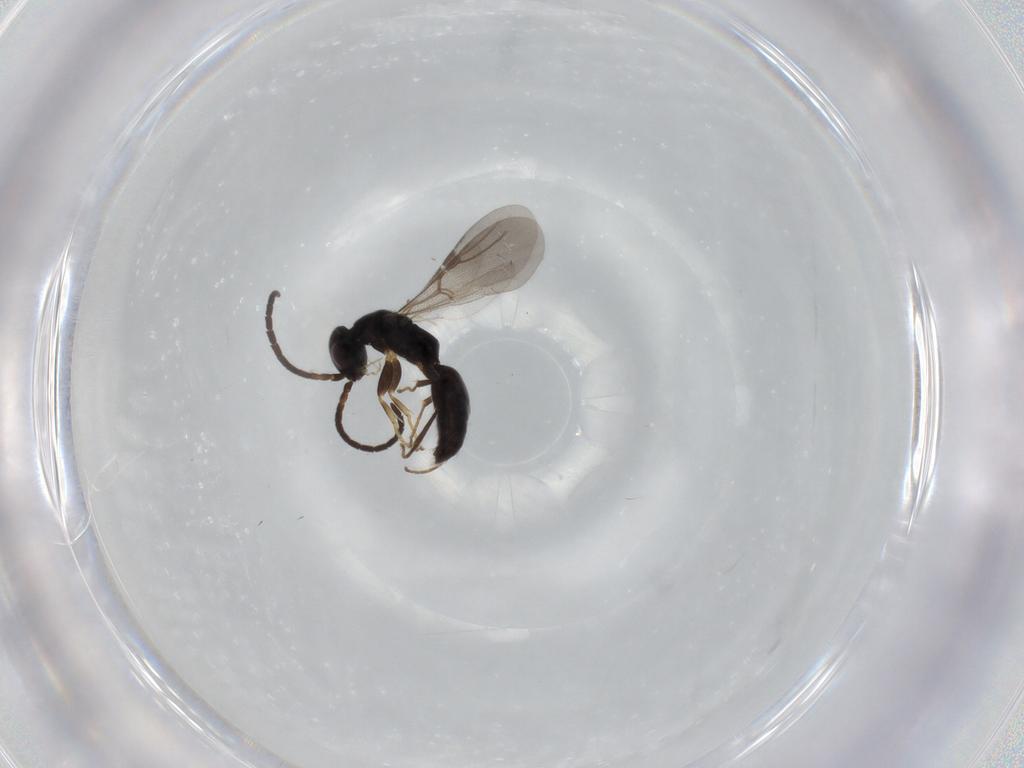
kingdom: Animalia
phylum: Arthropoda
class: Insecta
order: Hymenoptera
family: Bethylidae
